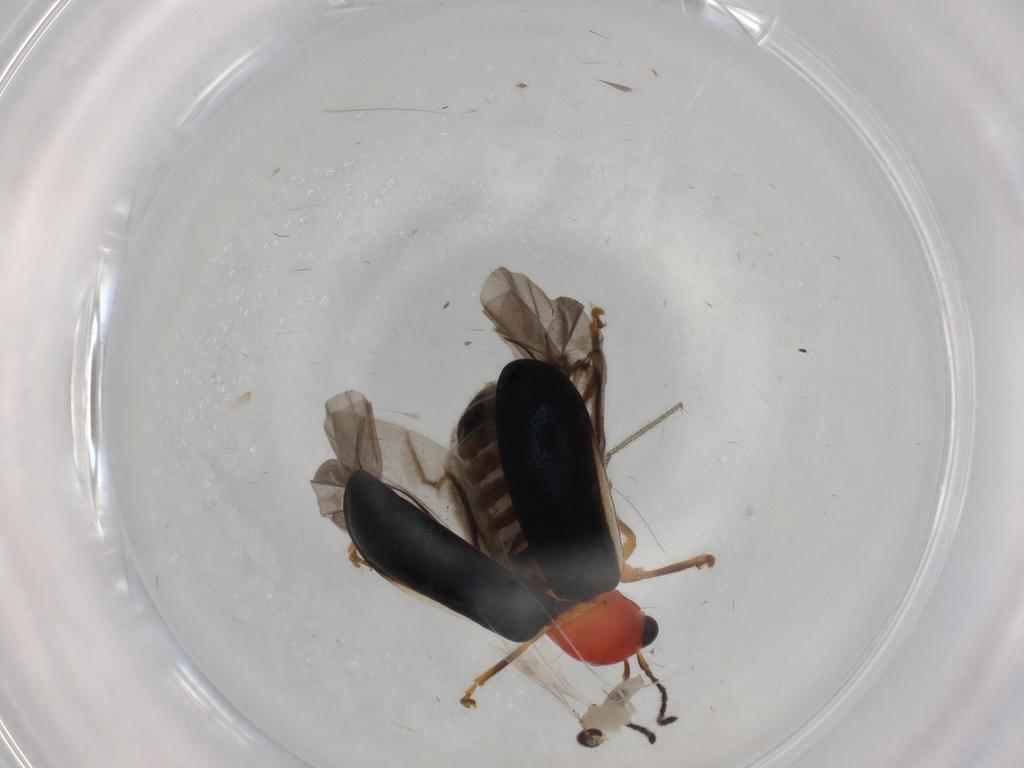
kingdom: Animalia
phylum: Arthropoda
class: Insecta
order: Diptera
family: Cecidomyiidae
